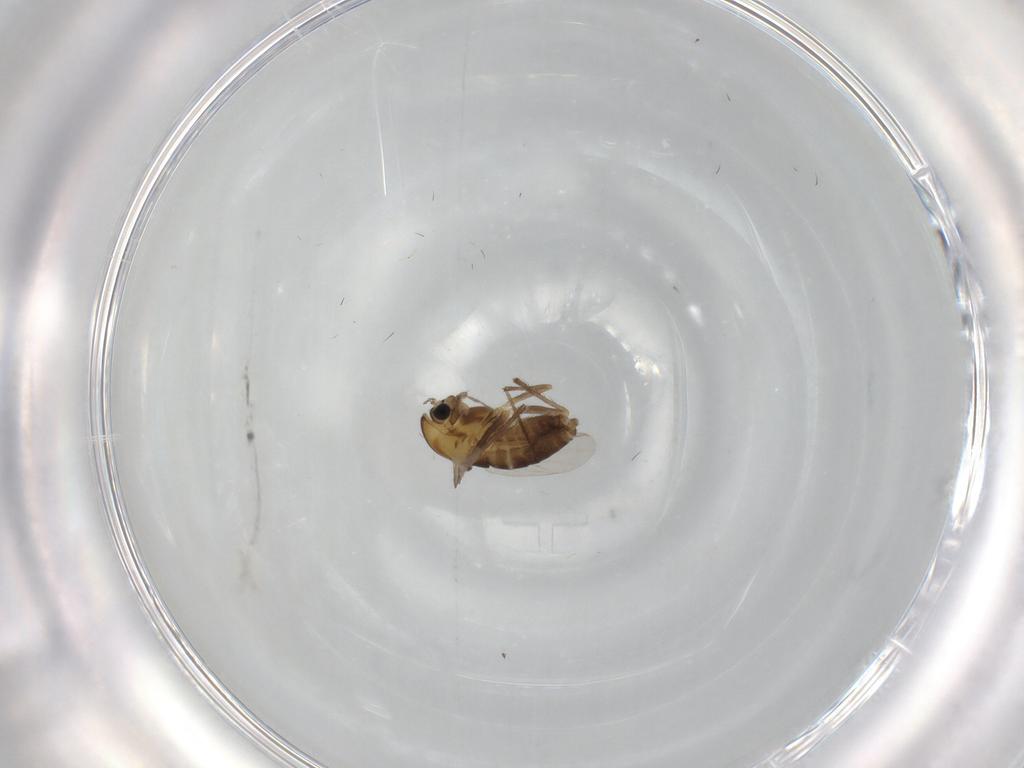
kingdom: Animalia
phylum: Arthropoda
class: Insecta
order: Diptera
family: Chironomidae
